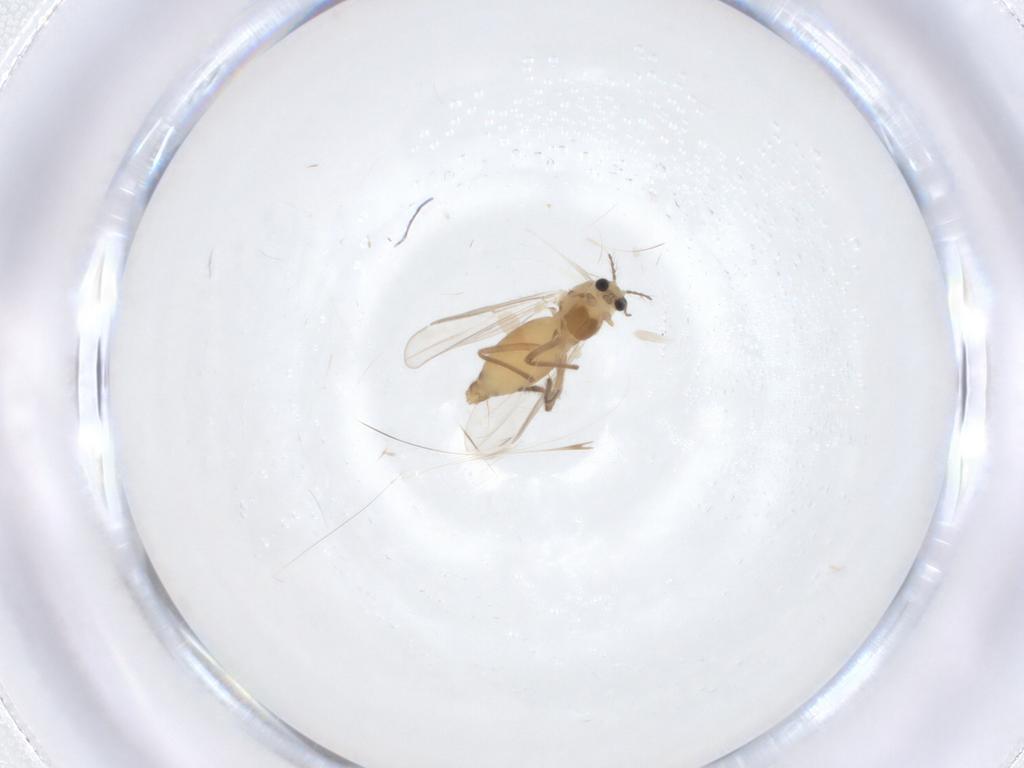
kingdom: Animalia
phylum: Arthropoda
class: Insecta
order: Diptera
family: Chironomidae
